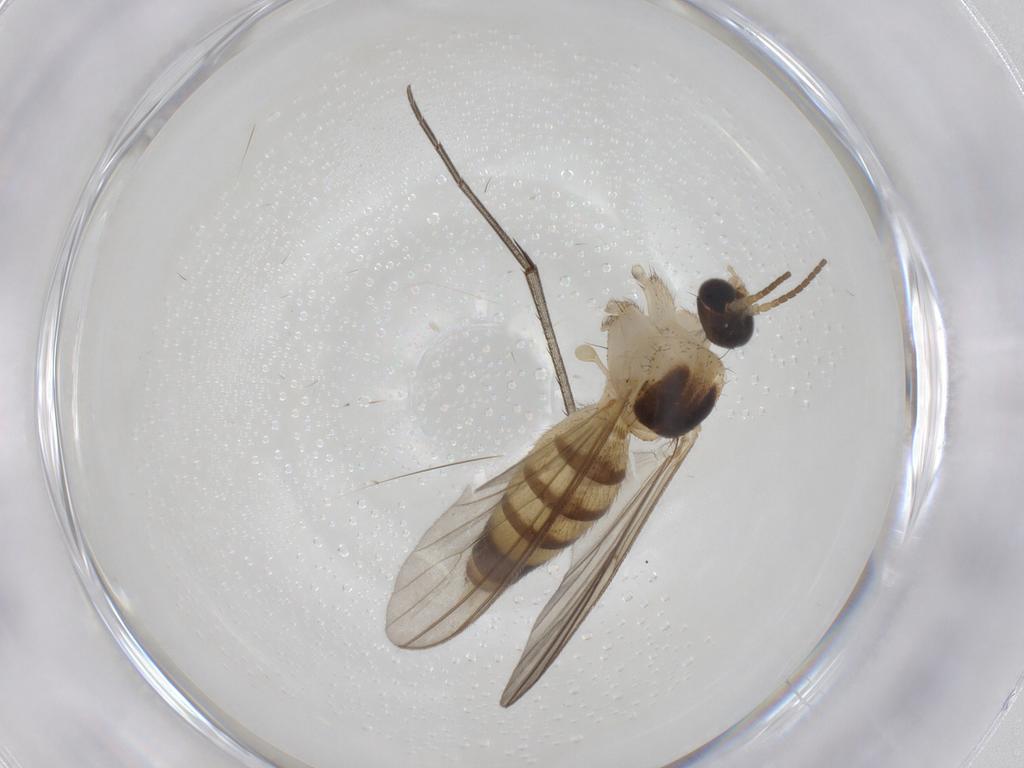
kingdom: Animalia
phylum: Arthropoda
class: Insecta
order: Diptera
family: Mycetophilidae
